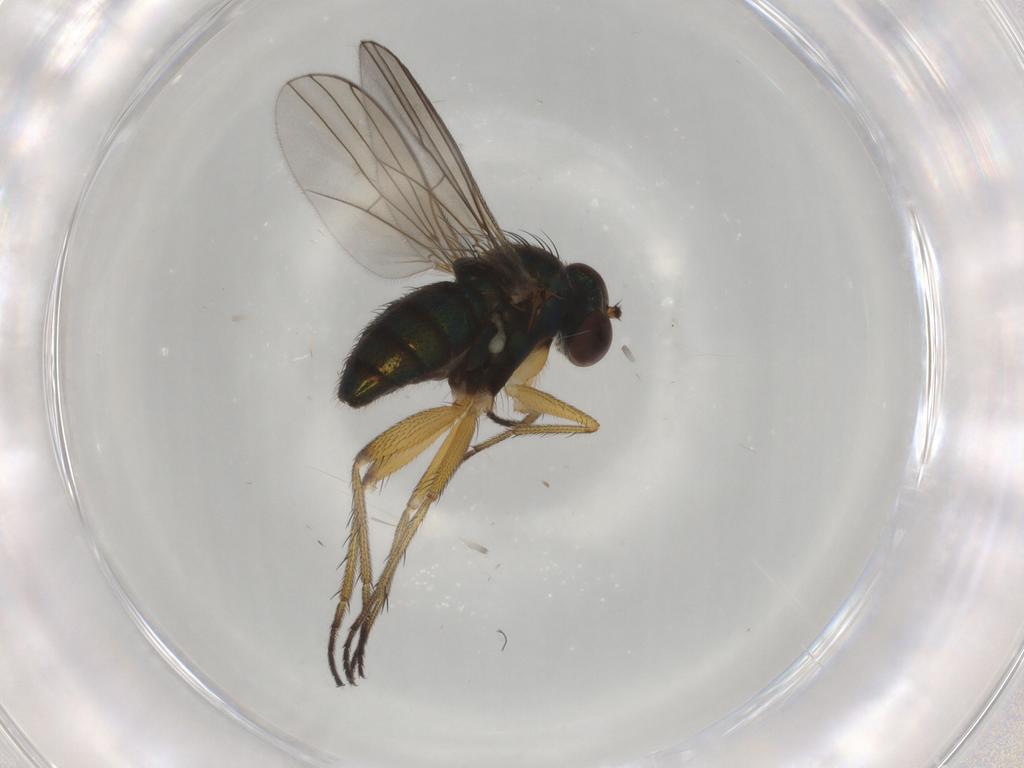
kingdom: Animalia
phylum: Arthropoda
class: Insecta
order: Diptera
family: Dolichopodidae
